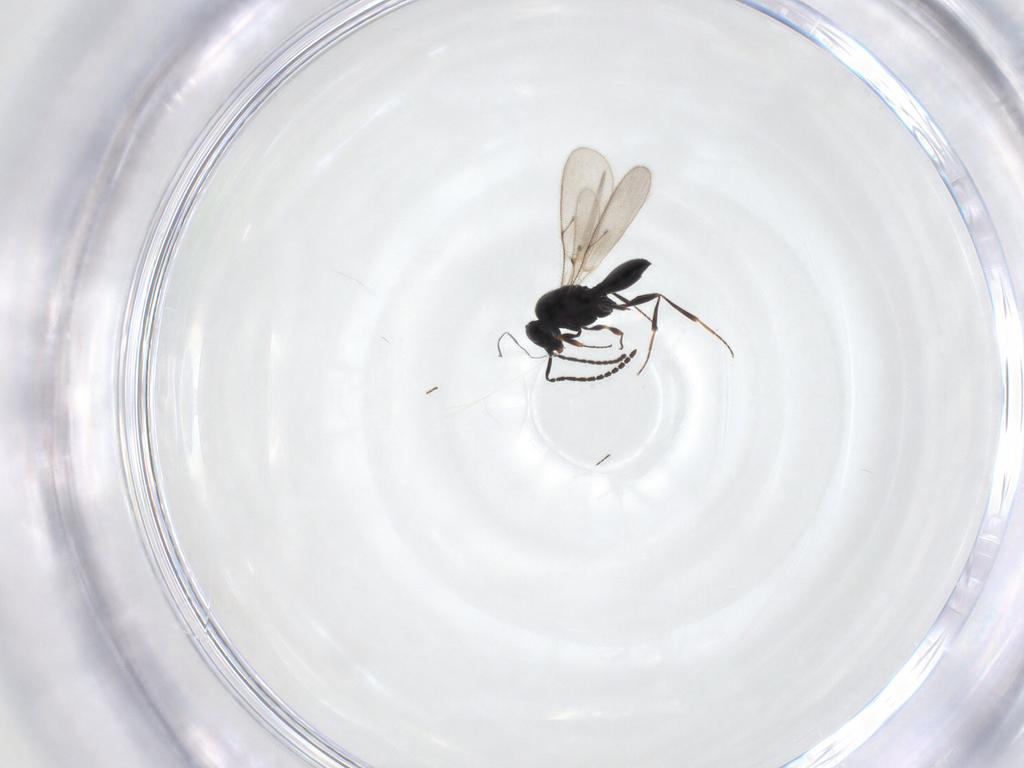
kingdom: Animalia
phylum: Arthropoda
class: Insecta
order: Hymenoptera
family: Scelionidae
